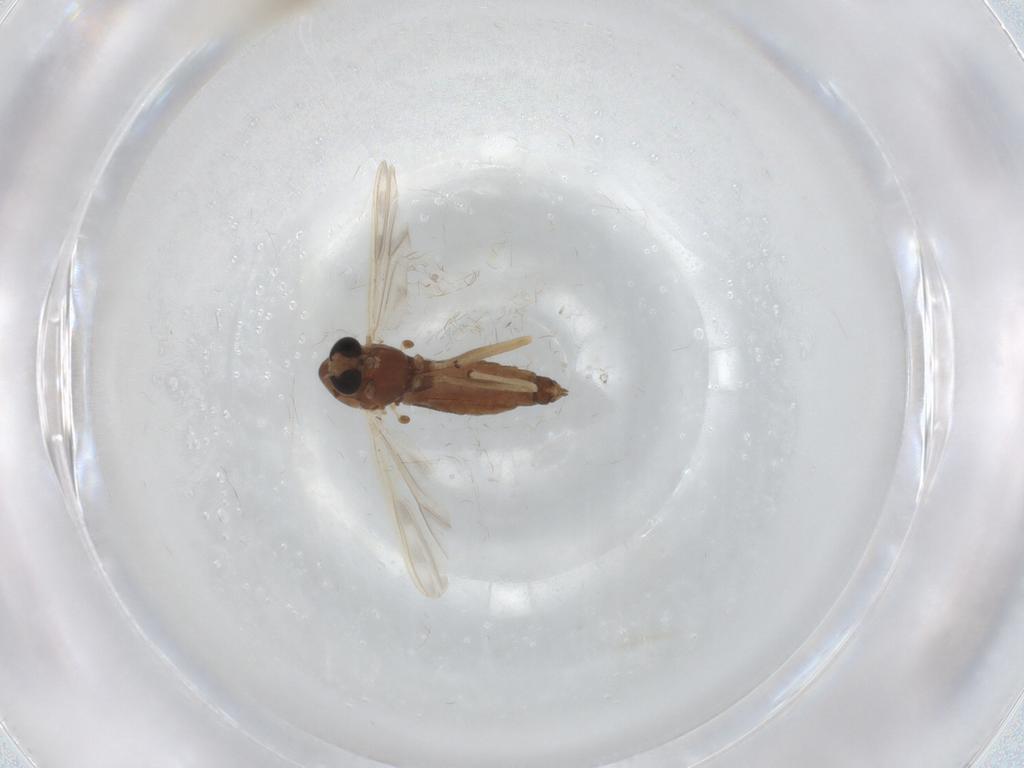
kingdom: Animalia
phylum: Arthropoda
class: Insecta
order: Diptera
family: Chironomidae
